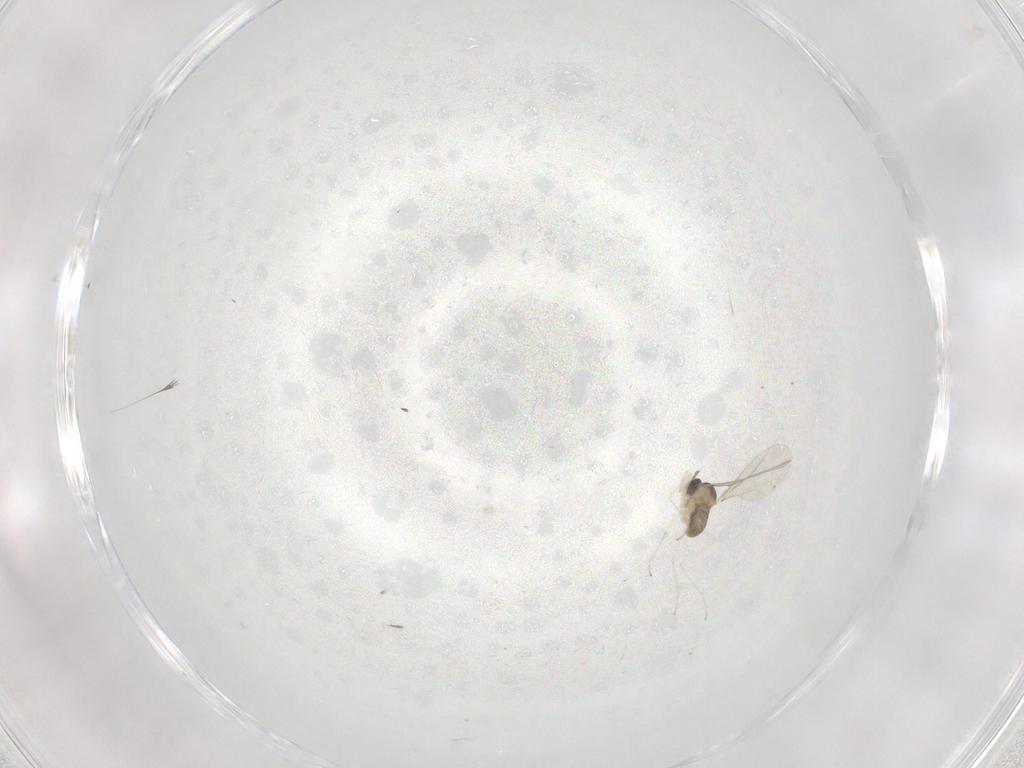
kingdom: Animalia
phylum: Arthropoda
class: Insecta
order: Diptera
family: Cecidomyiidae
